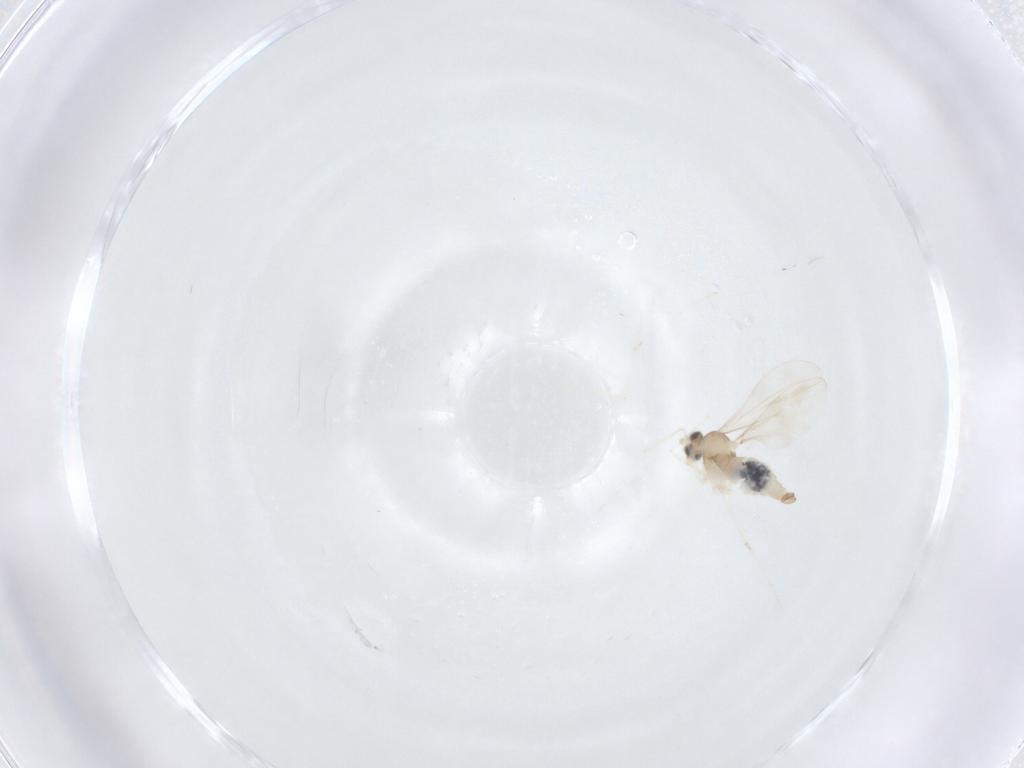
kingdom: Animalia
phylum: Arthropoda
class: Insecta
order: Diptera
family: Cecidomyiidae
